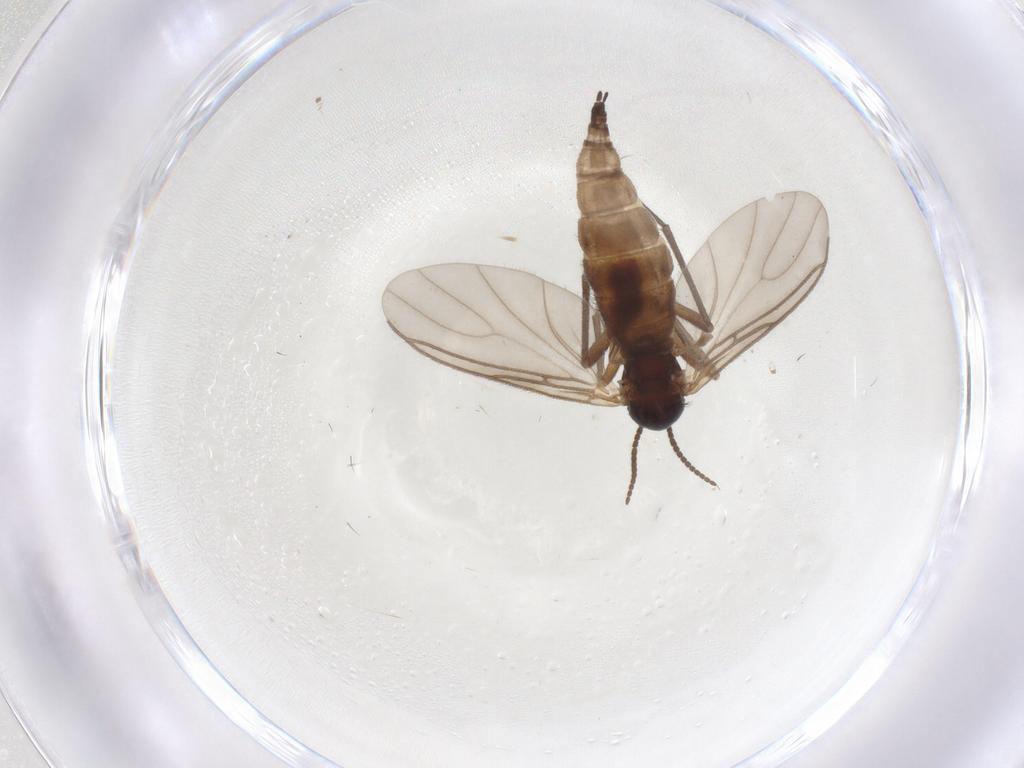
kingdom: Animalia
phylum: Arthropoda
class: Insecta
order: Diptera
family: Sciaridae
